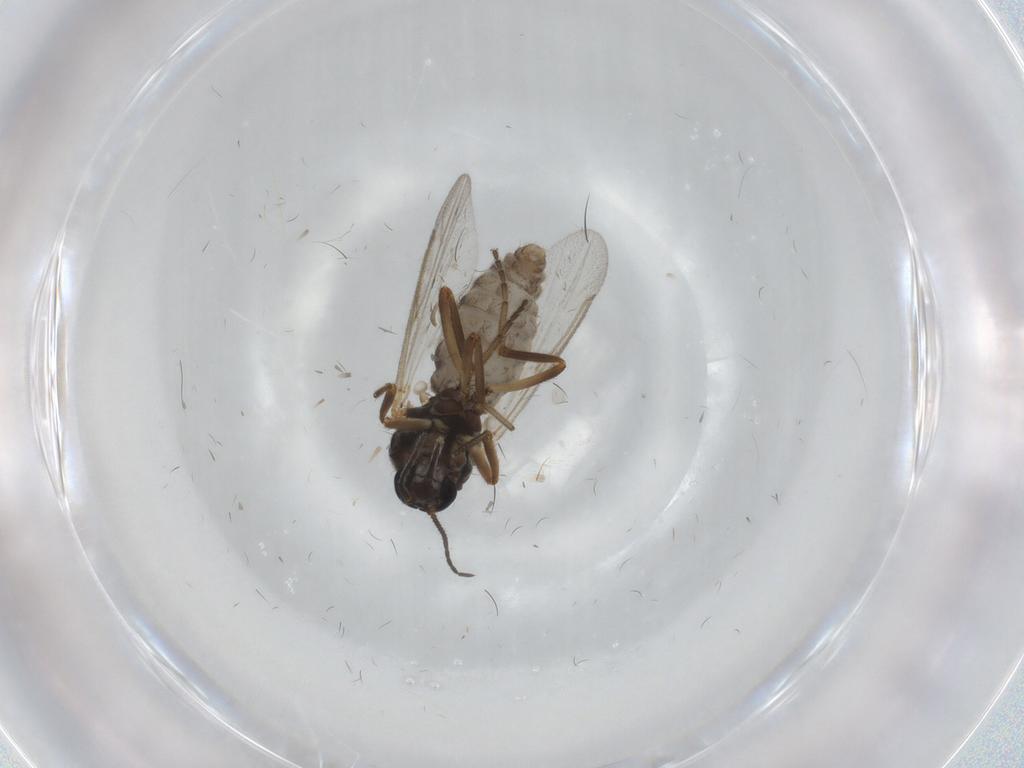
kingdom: Animalia
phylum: Arthropoda
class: Insecta
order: Diptera
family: Ceratopogonidae
